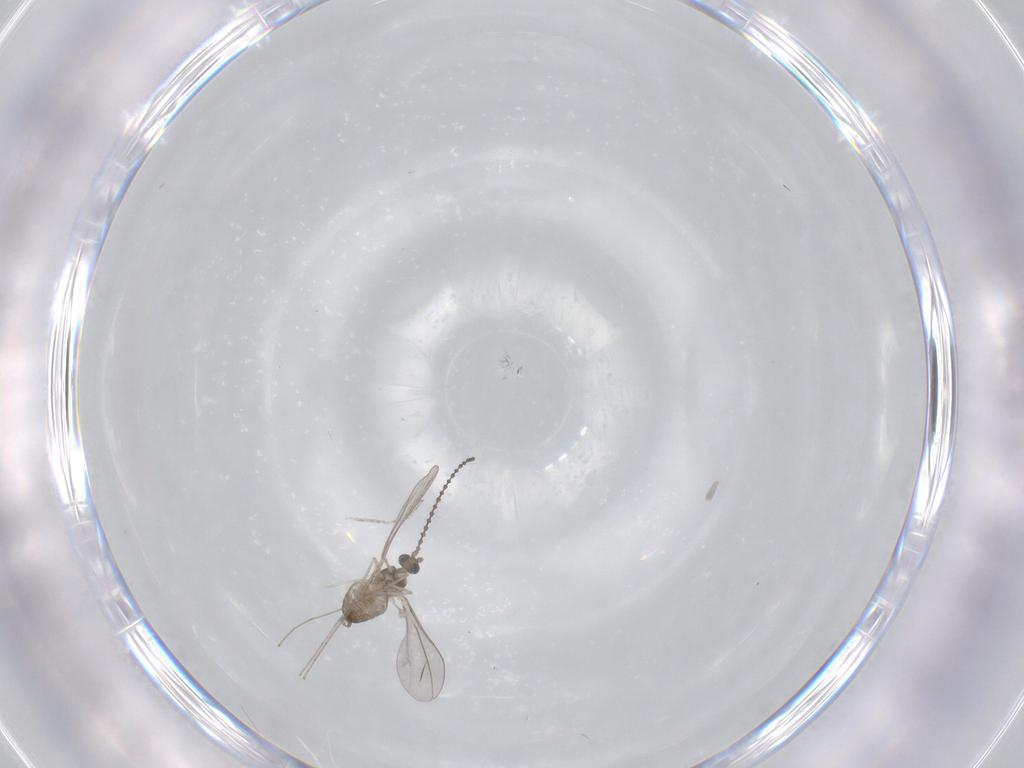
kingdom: Animalia
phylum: Arthropoda
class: Insecta
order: Diptera
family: Cecidomyiidae
